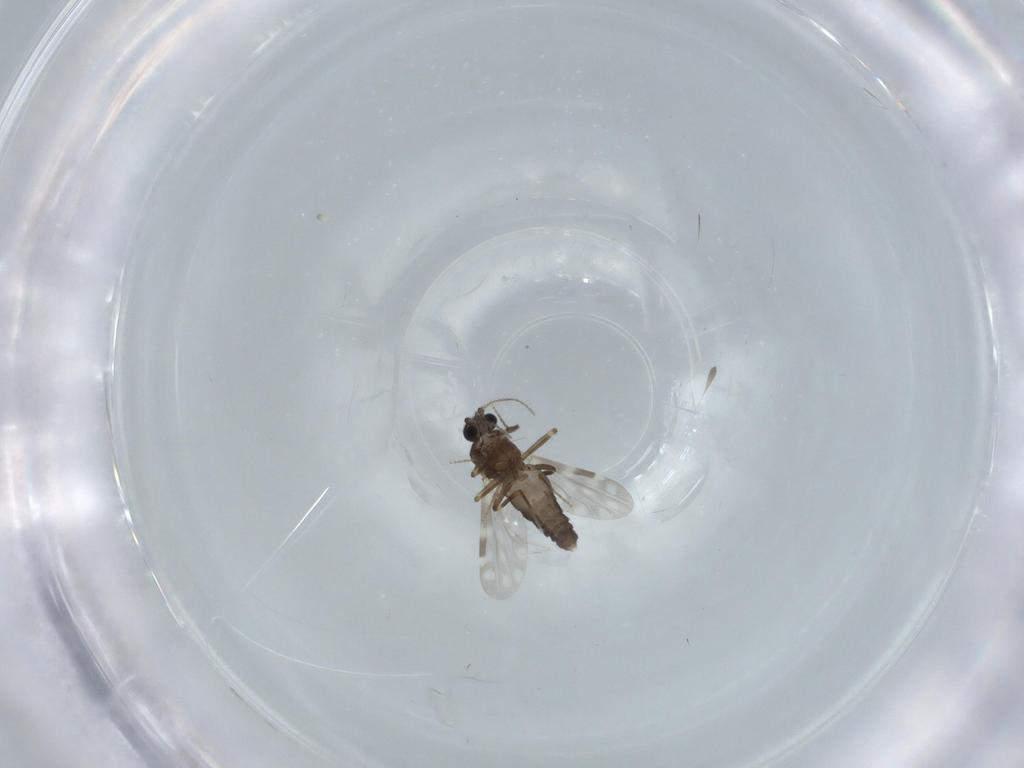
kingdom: Animalia
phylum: Arthropoda
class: Insecta
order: Diptera
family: Ceratopogonidae
